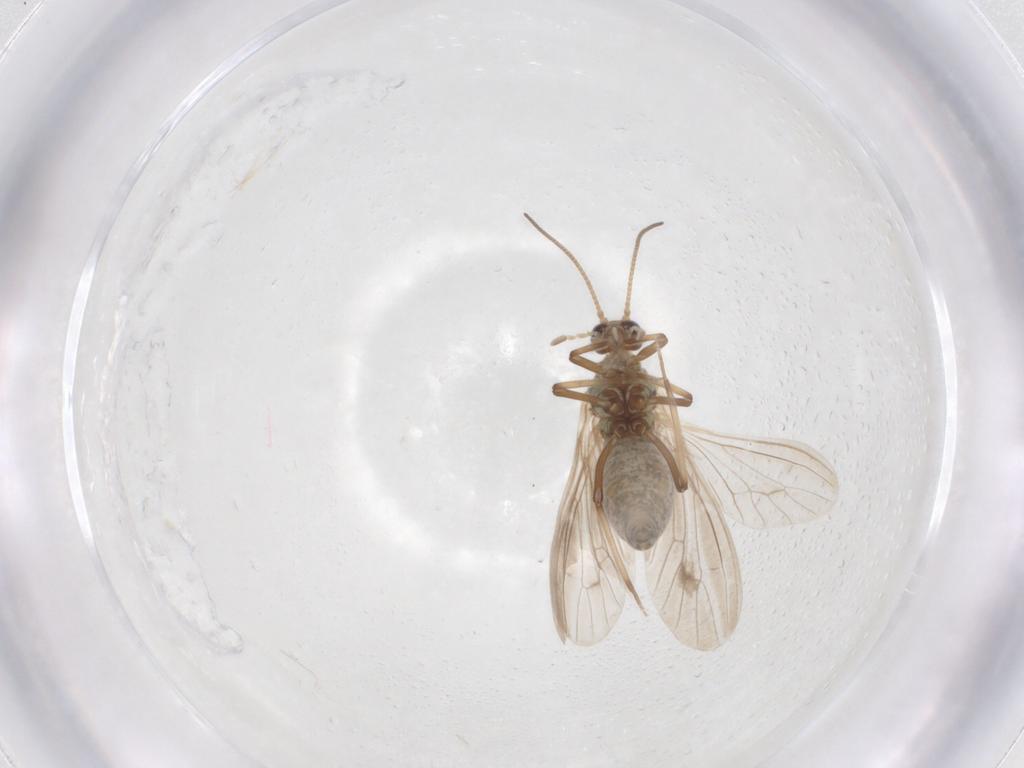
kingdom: Animalia
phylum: Arthropoda
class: Insecta
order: Neuroptera
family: Coniopterygidae
